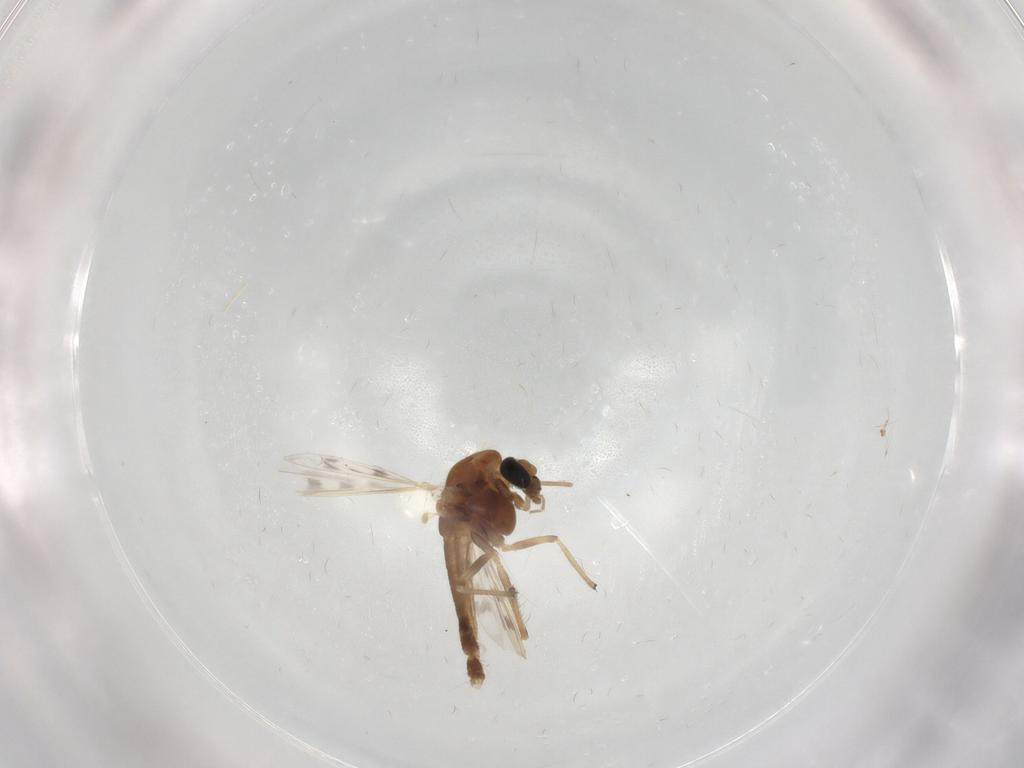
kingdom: Animalia
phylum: Arthropoda
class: Insecta
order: Diptera
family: Chironomidae
